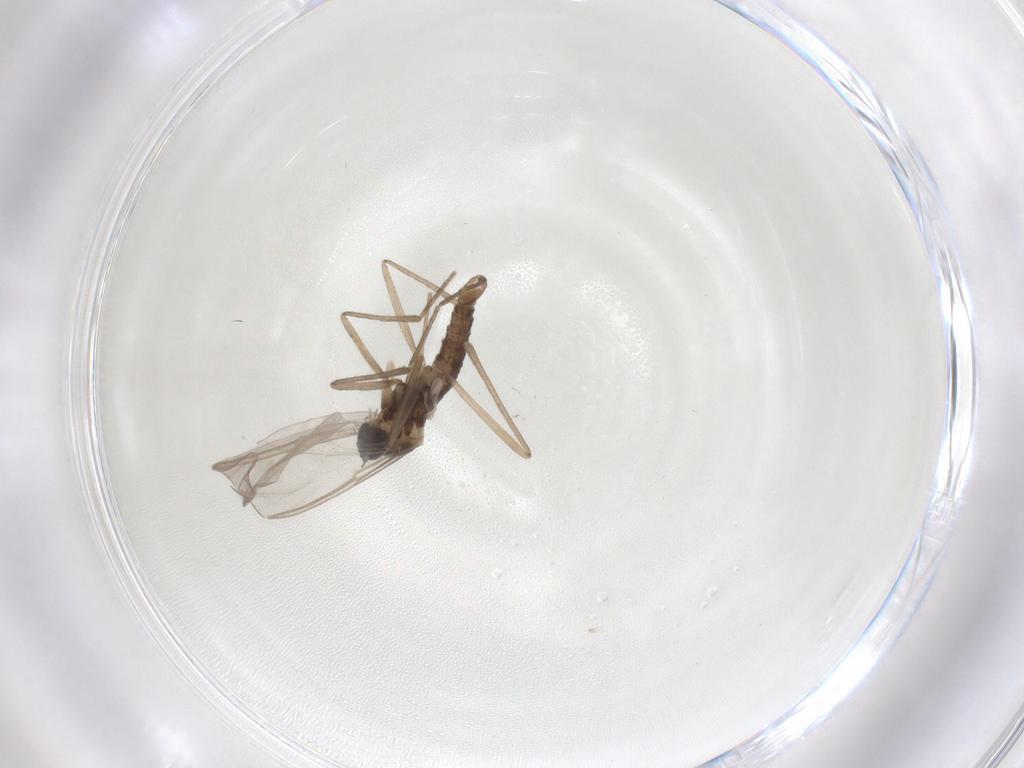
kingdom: Animalia
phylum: Arthropoda
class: Insecta
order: Diptera
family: Cecidomyiidae
